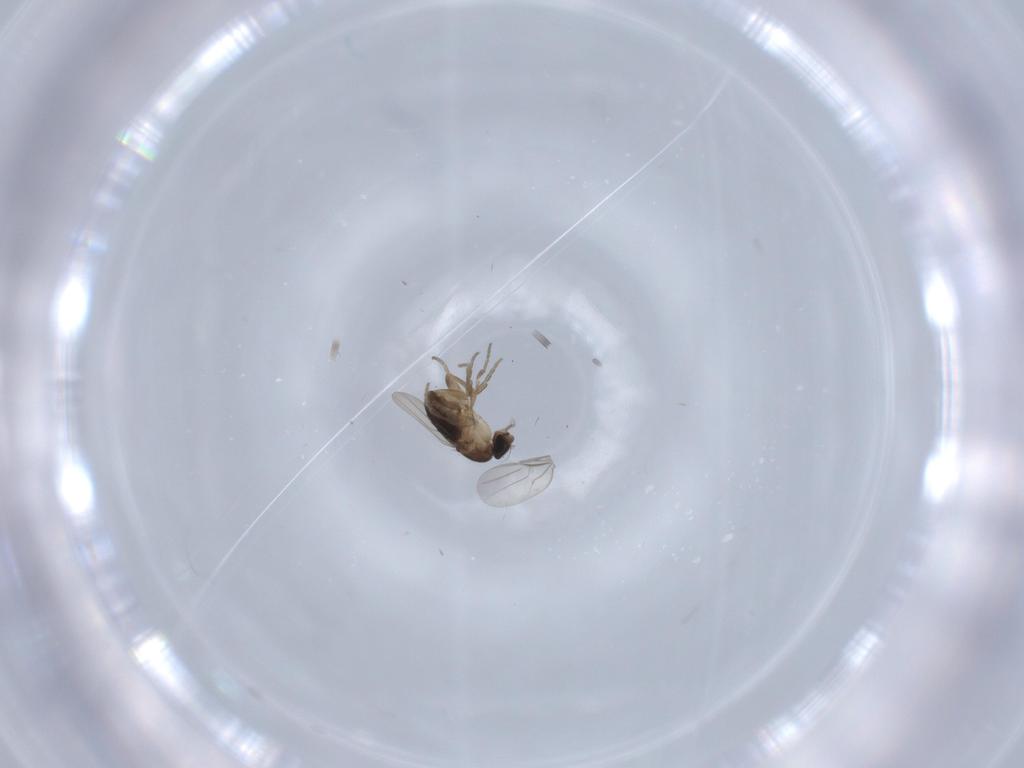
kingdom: Animalia
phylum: Arthropoda
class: Insecta
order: Diptera
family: Phoridae
